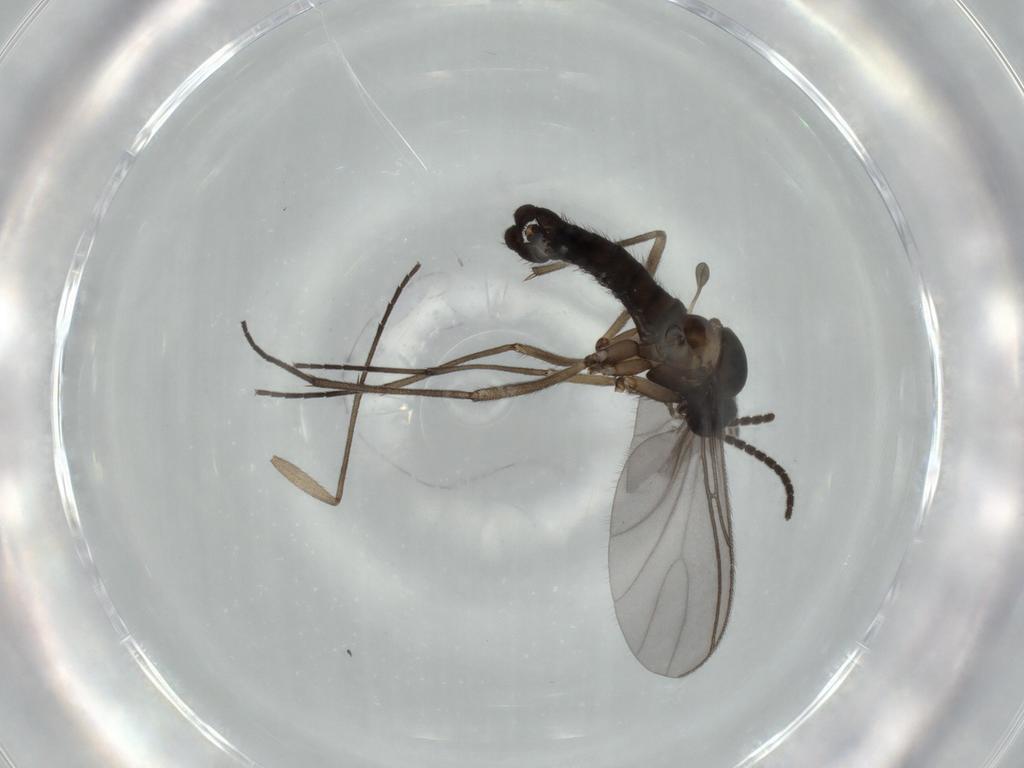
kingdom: Animalia
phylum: Arthropoda
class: Insecta
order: Diptera
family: Sciaridae
